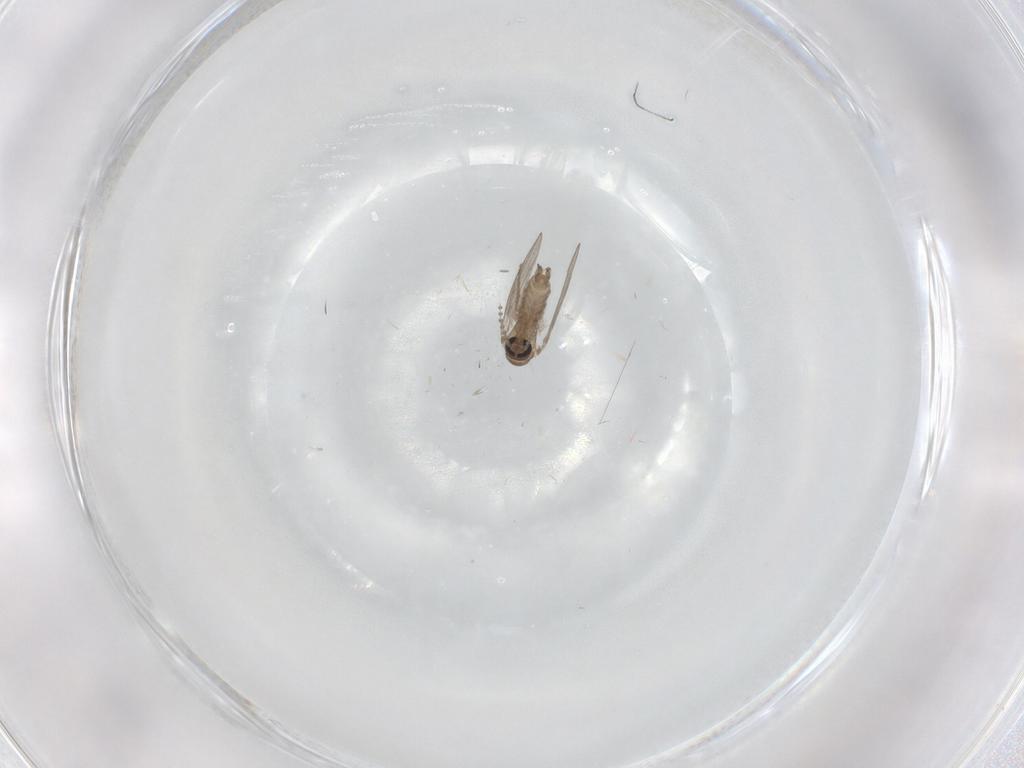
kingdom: Animalia
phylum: Arthropoda
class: Insecta
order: Diptera
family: Psychodidae
